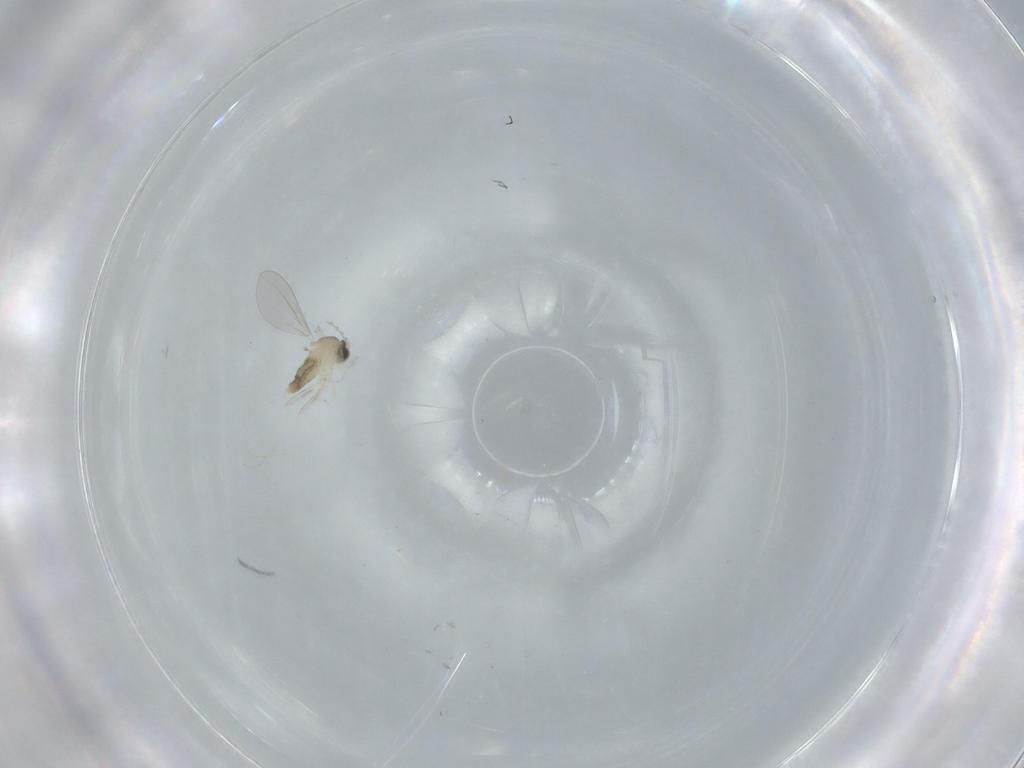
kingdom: Animalia
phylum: Arthropoda
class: Insecta
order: Diptera
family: Cecidomyiidae
